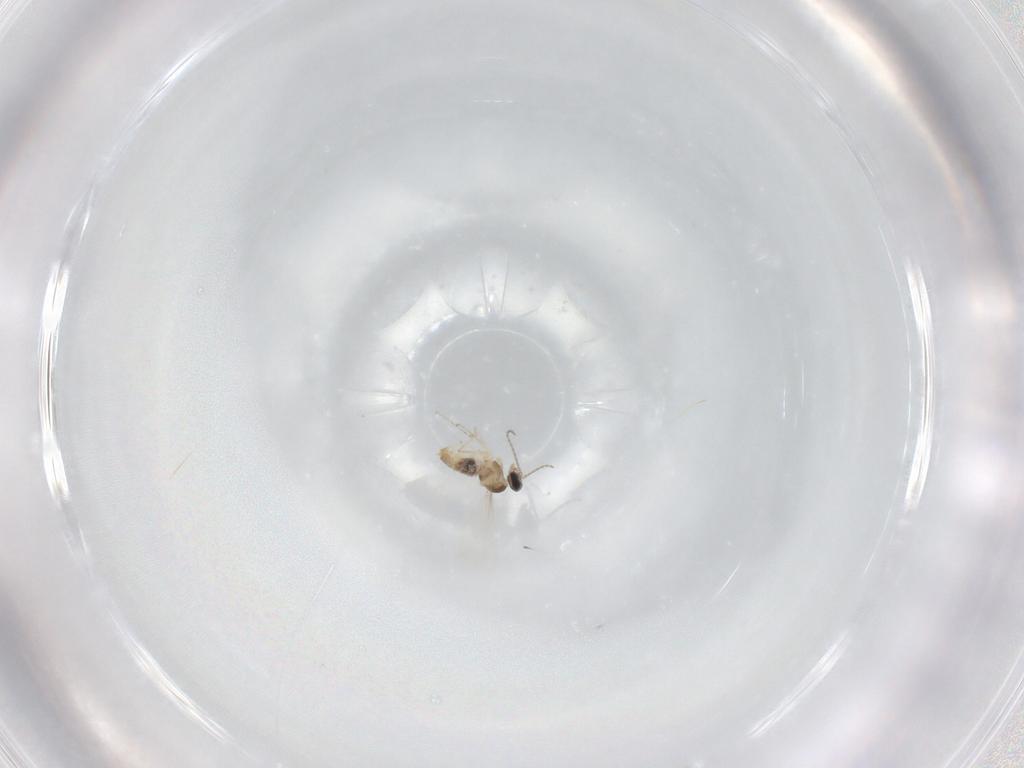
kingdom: Animalia
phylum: Arthropoda
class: Insecta
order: Diptera
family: Cecidomyiidae
